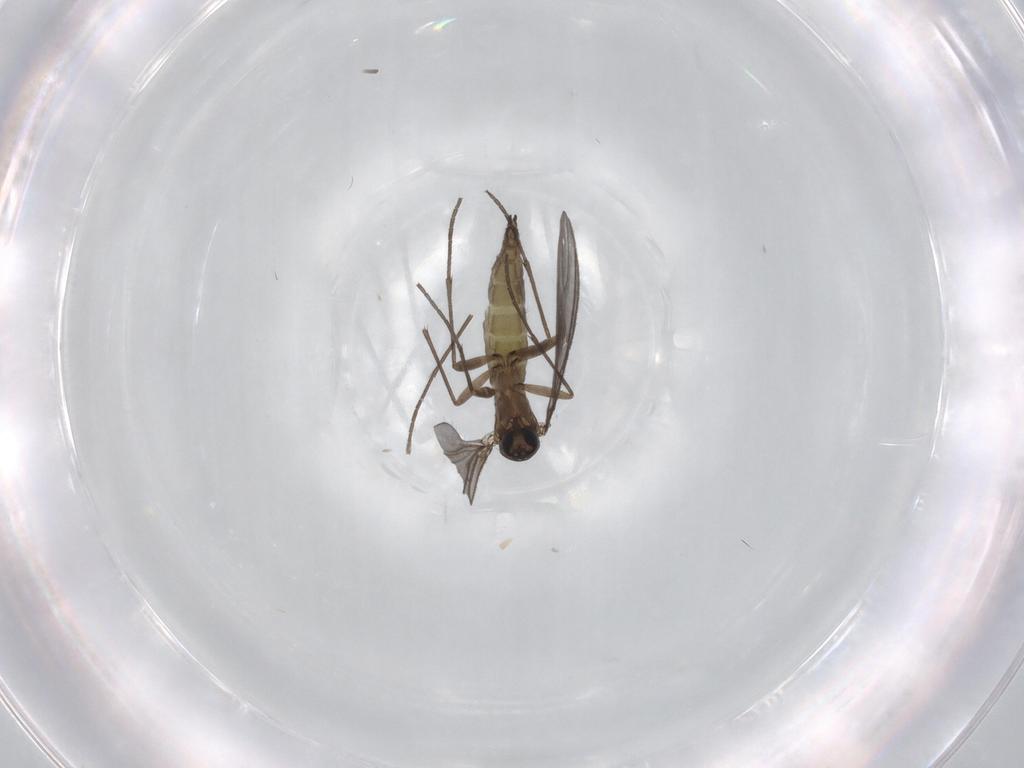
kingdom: Animalia
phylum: Arthropoda
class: Insecta
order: Diptera
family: Sciaridae
